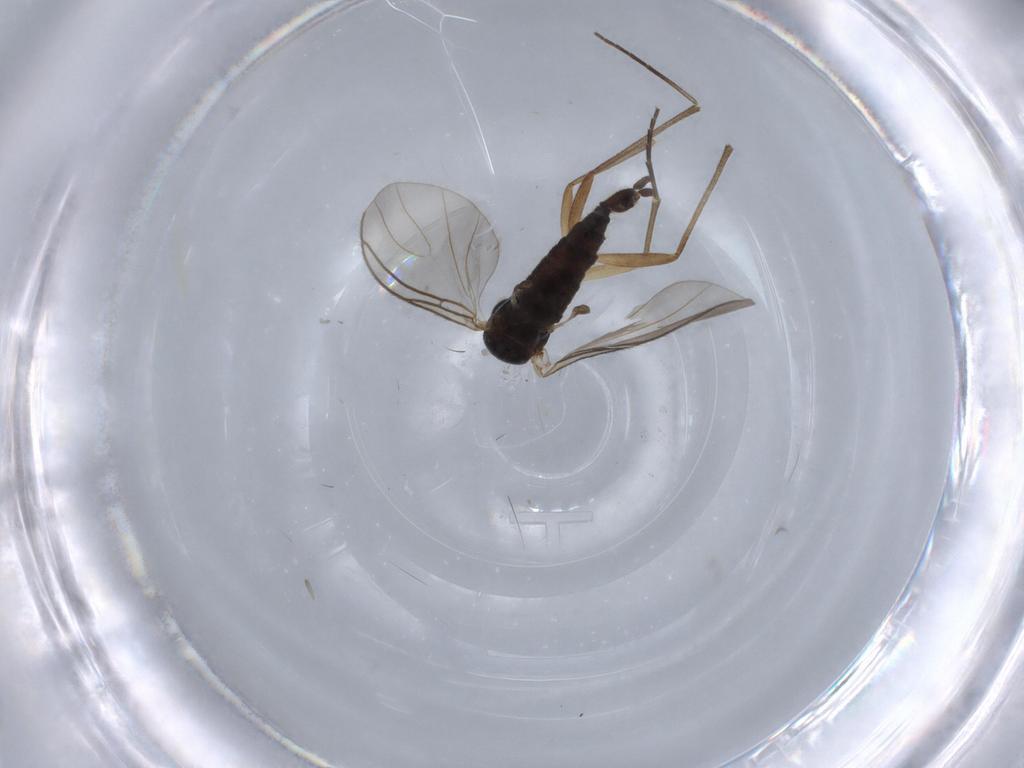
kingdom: Animalia
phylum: Arthropoda
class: Insecta
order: Diptera
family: Sciaridae
